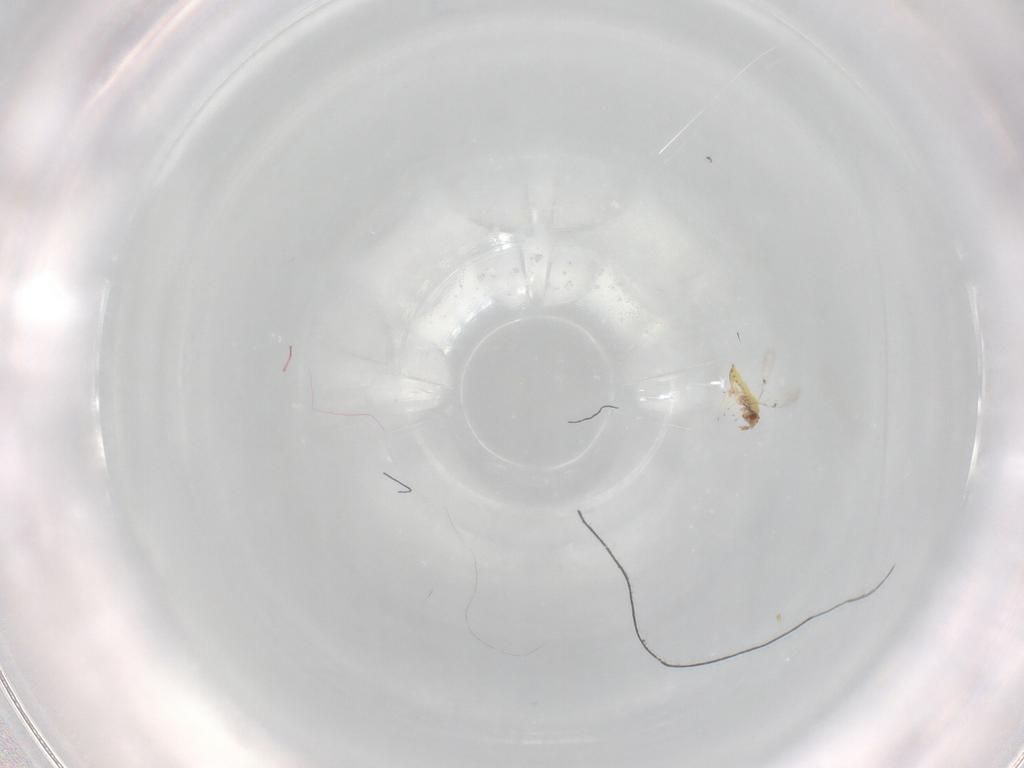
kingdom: Animalia
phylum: Arthropoda
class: Insecta
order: Hymenoptera
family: Trichogrammatidae
